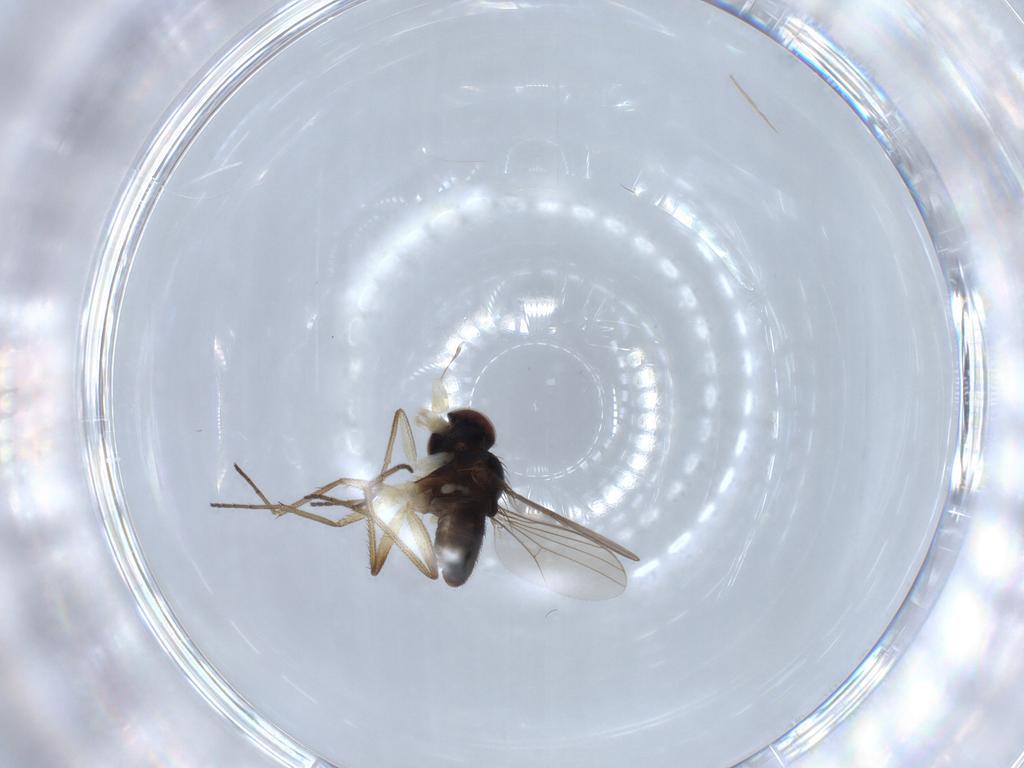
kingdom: Animalia
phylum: Arthropoda
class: Insecta
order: Diptera
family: Dolichopodidae
